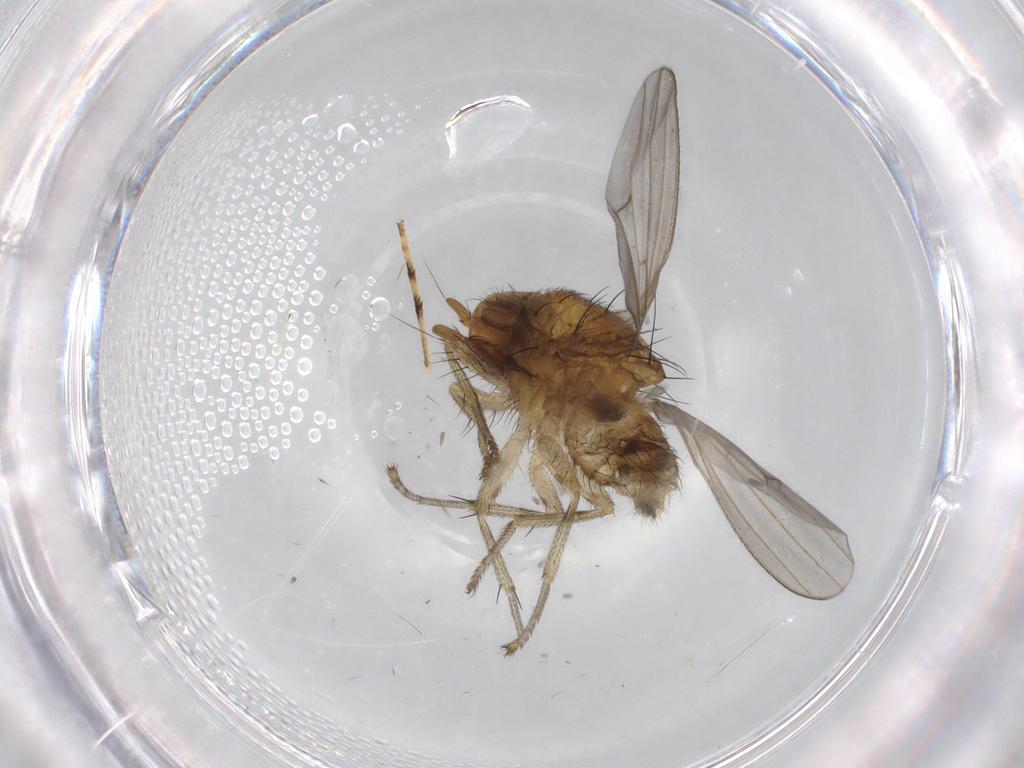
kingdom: Animalia
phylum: Arthropoda
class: Insecta
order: Diptera
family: Lauxaniidae
